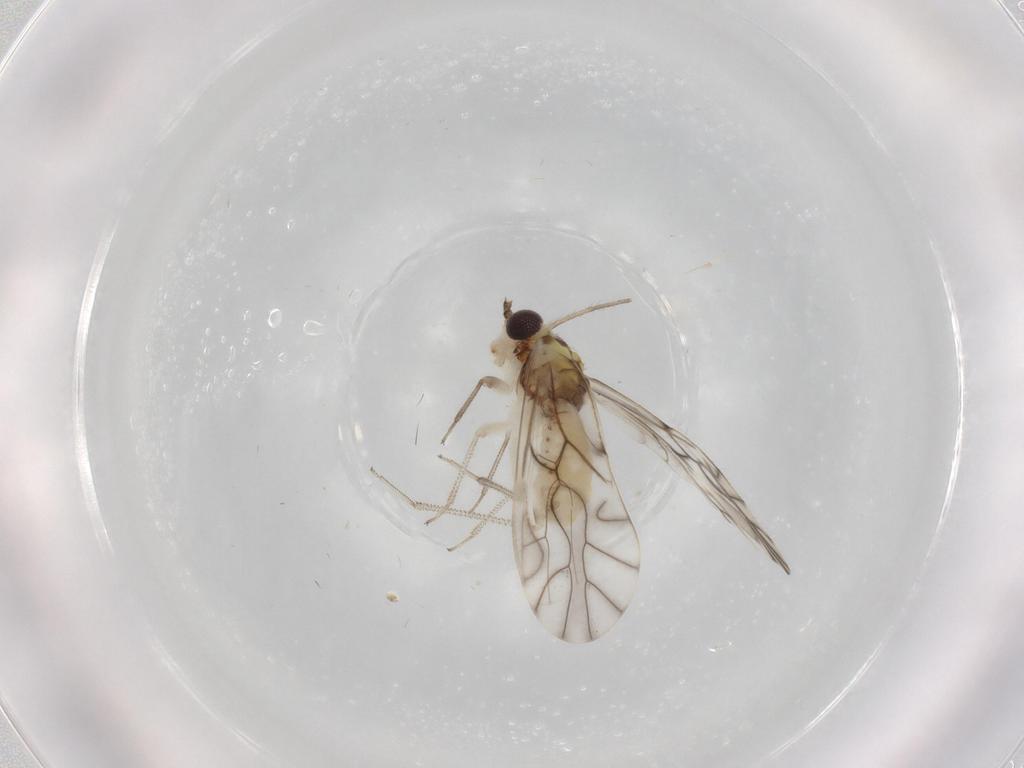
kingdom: Animalia
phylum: Arthropoda
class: Insecta
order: Psocodea
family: Caeciliusidae
